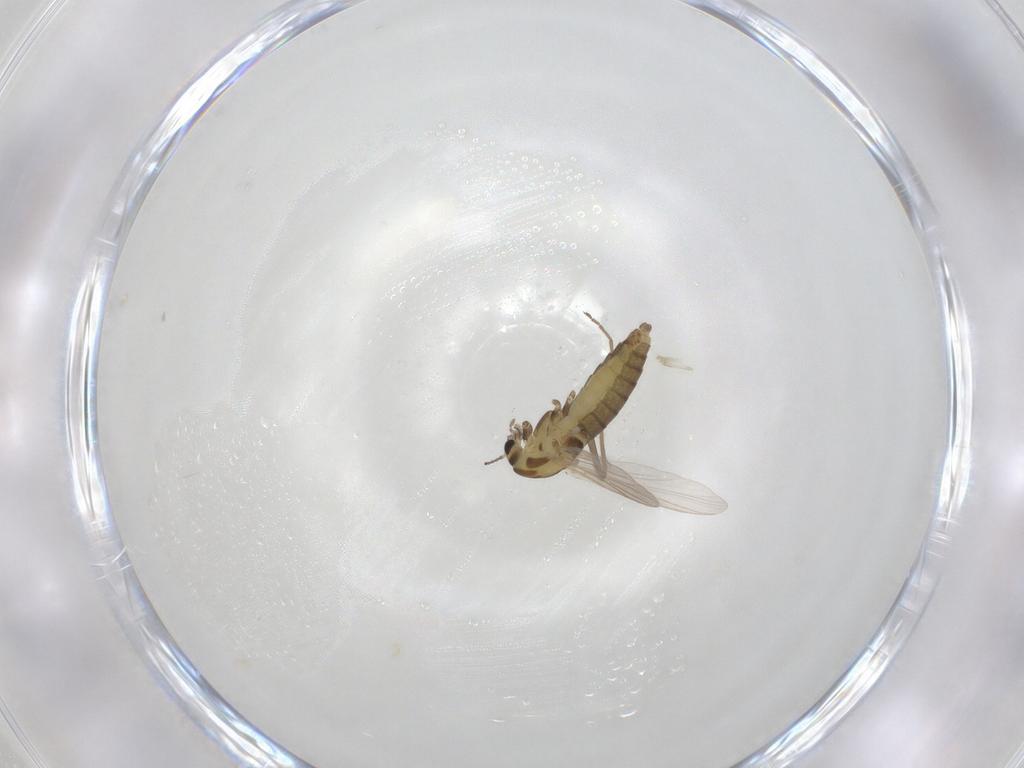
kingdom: Animalia
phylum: Arthropoda
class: Insecta
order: Diptera
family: Chironomidae
